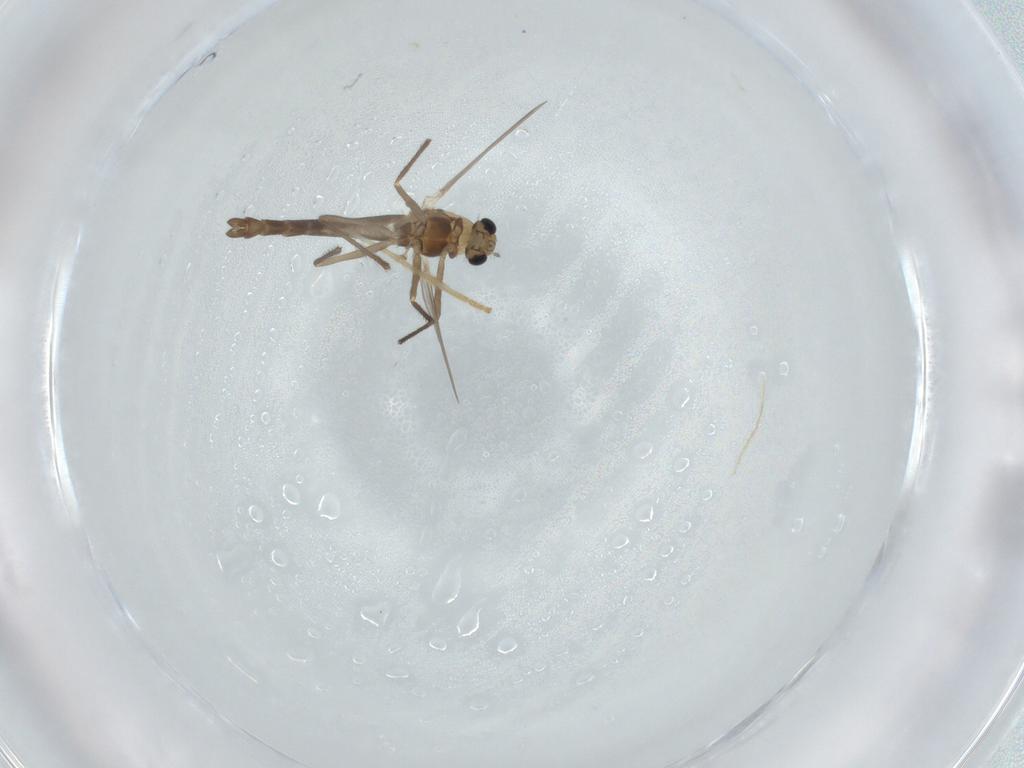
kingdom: Animalia
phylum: Arthropoda
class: Insecta
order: Diptera
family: Chironomidae
